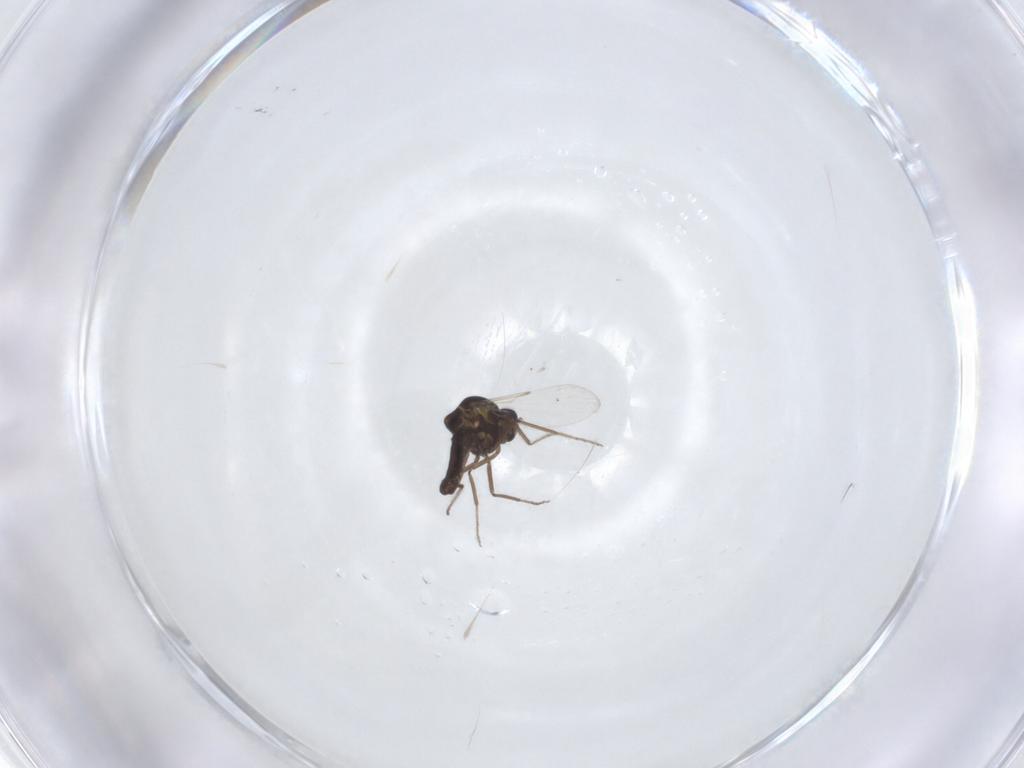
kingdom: Animalia
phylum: Arthropoda
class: Insecta
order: Diptera
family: Ceratopogonidae
